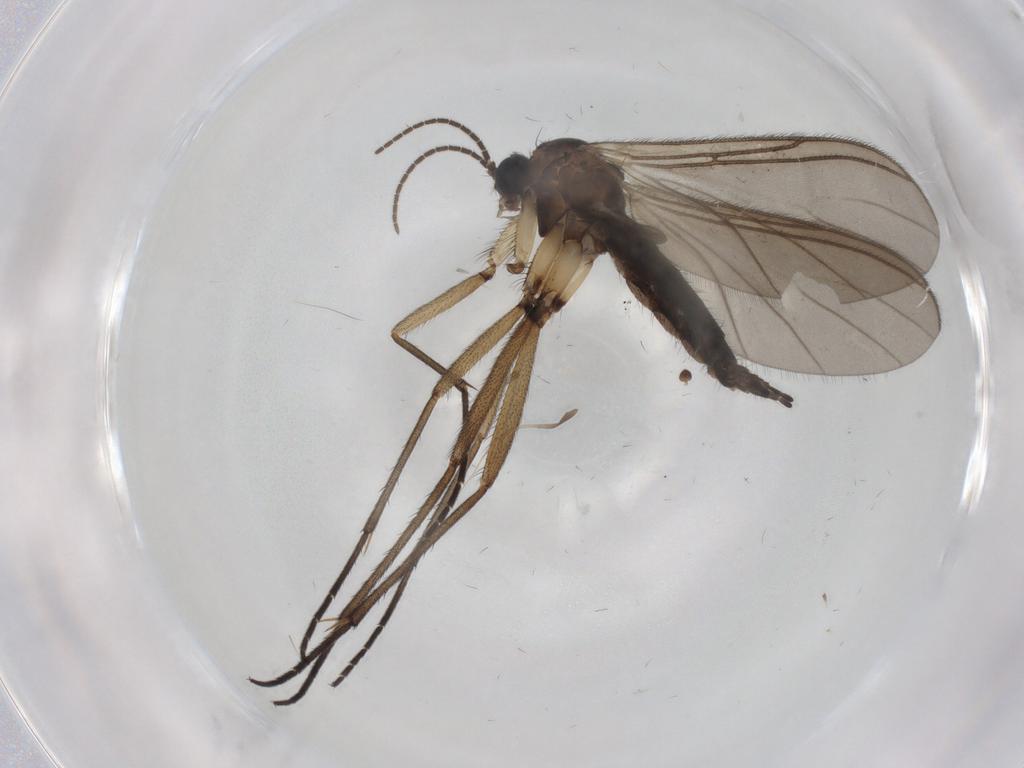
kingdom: Animalia
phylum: Arthropoda
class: Insecta
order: Diptera
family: Sciaridae
